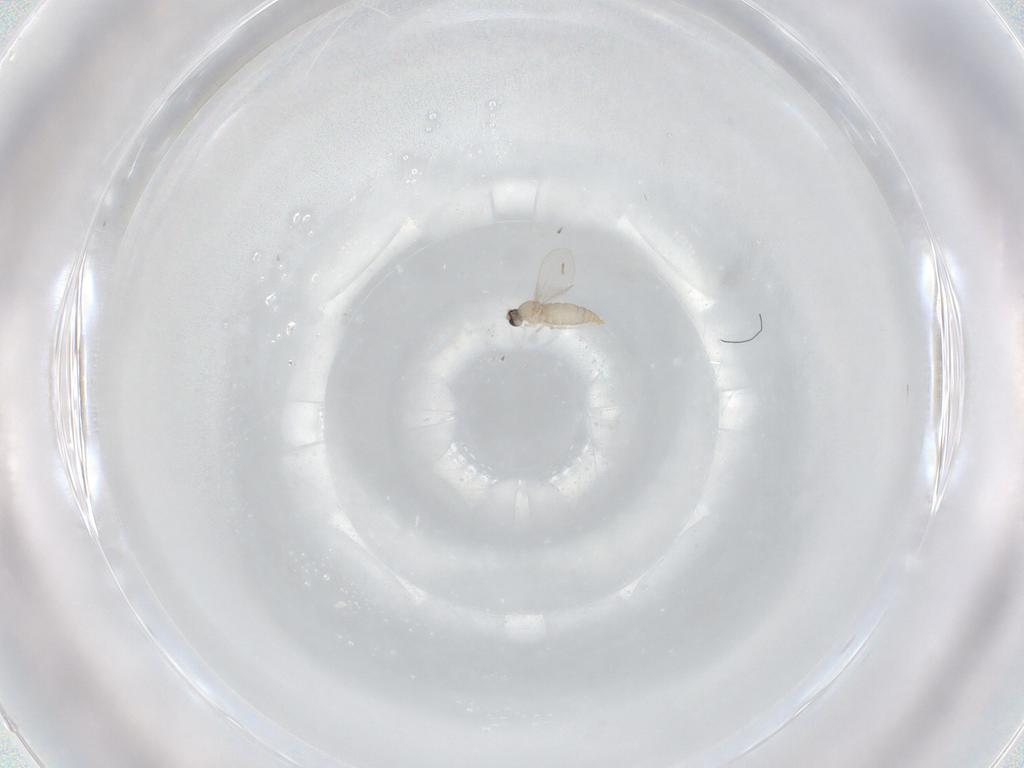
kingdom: Animalia
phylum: Arthropoda
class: Insecta
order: Diptera
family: Cecidomyiidae
